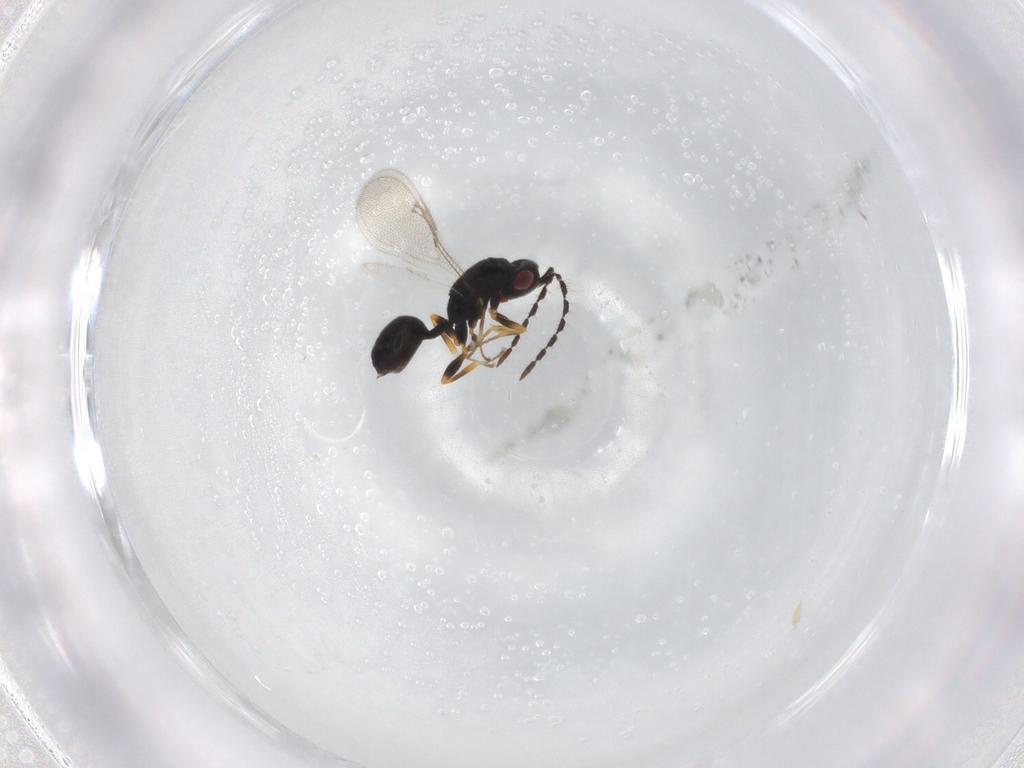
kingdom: Animalia
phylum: Arthropoda
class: Insecta
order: Hymenoptera
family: Eurytomidae
